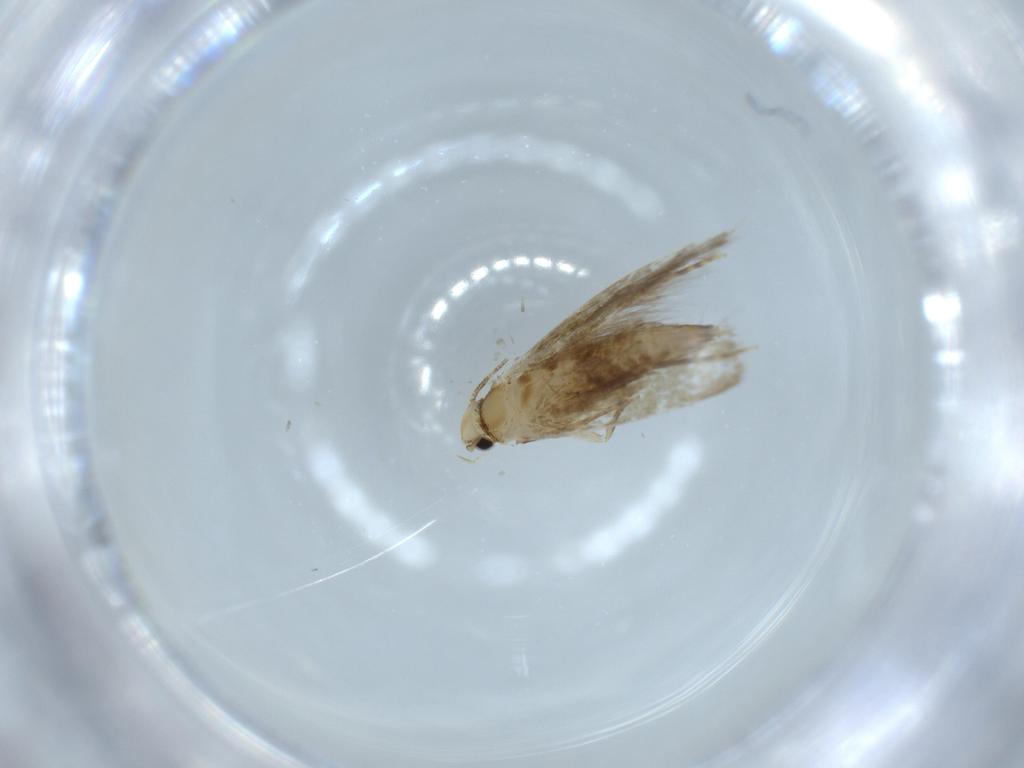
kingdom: Animalia
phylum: Arthropoda
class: Insecta
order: Lepidoptera
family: Tineidae
